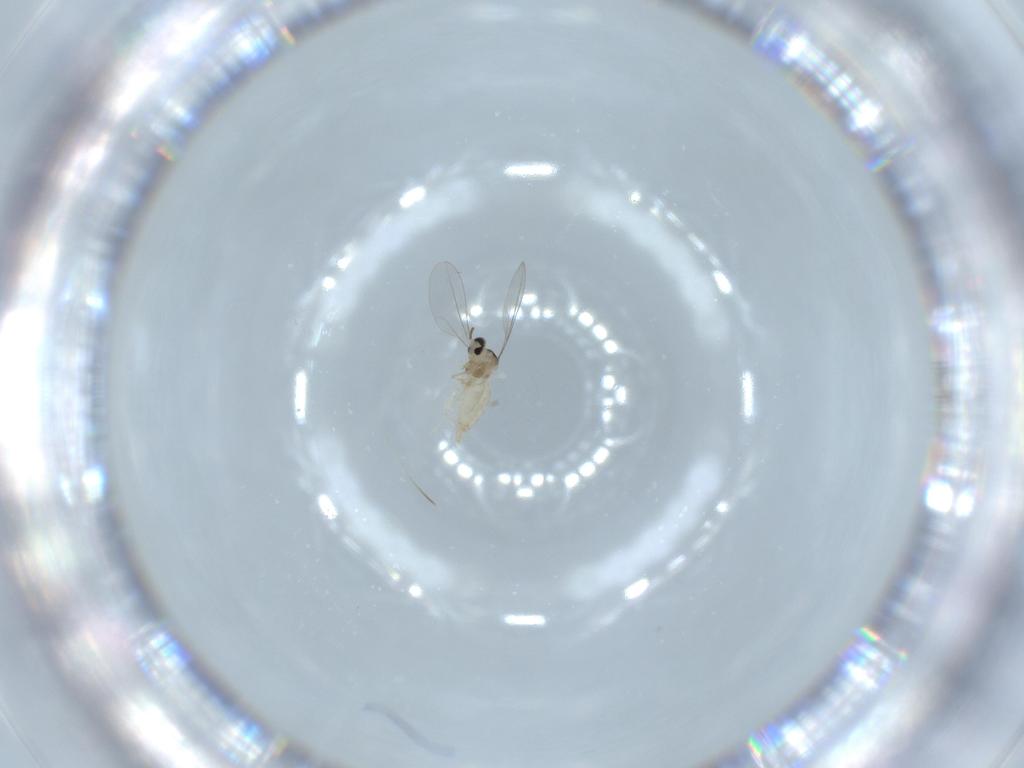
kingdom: Animalia
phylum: Arthropoda
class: Insecta
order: Diptera
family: Cecidomyiidae
